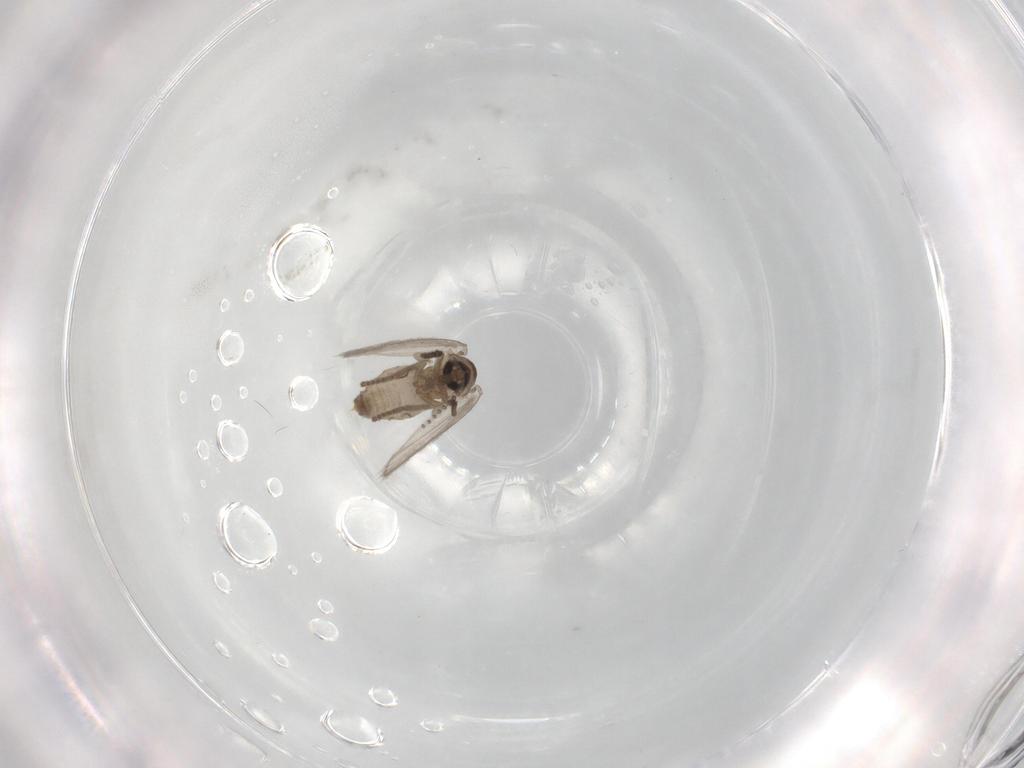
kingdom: Animalia
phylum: Arthropoda
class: Insecta
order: Diptera
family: Psychodidae
